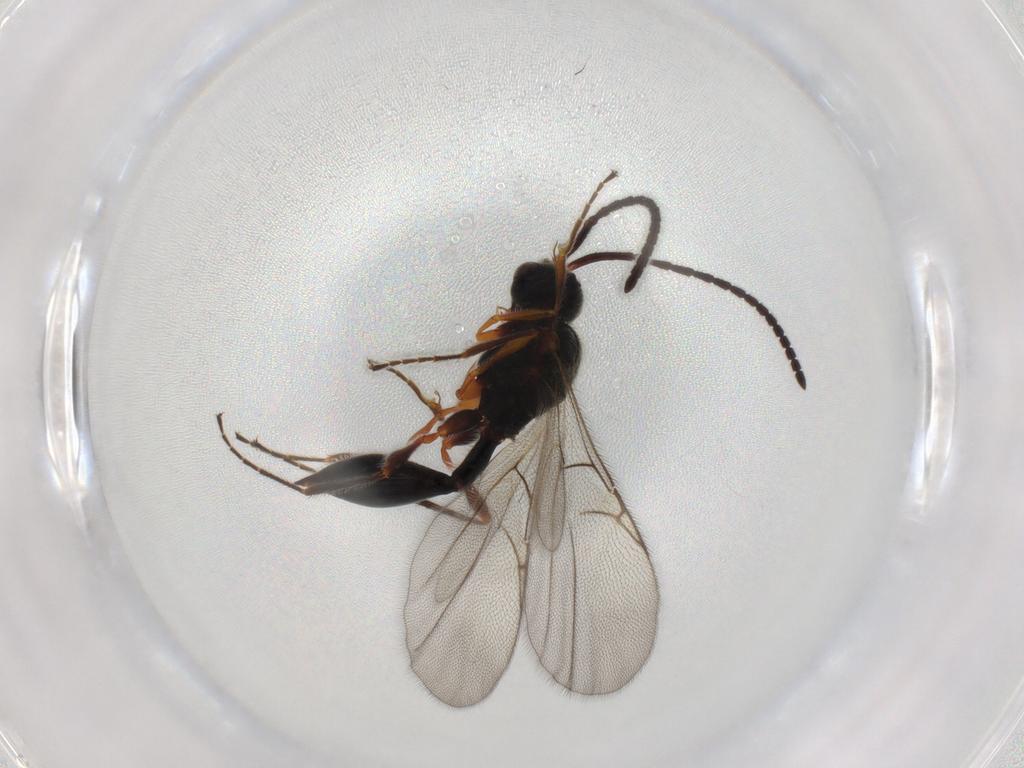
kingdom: Animalia
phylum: Arthropoda
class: Insecta
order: Hymenoptera
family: Diapriidae
